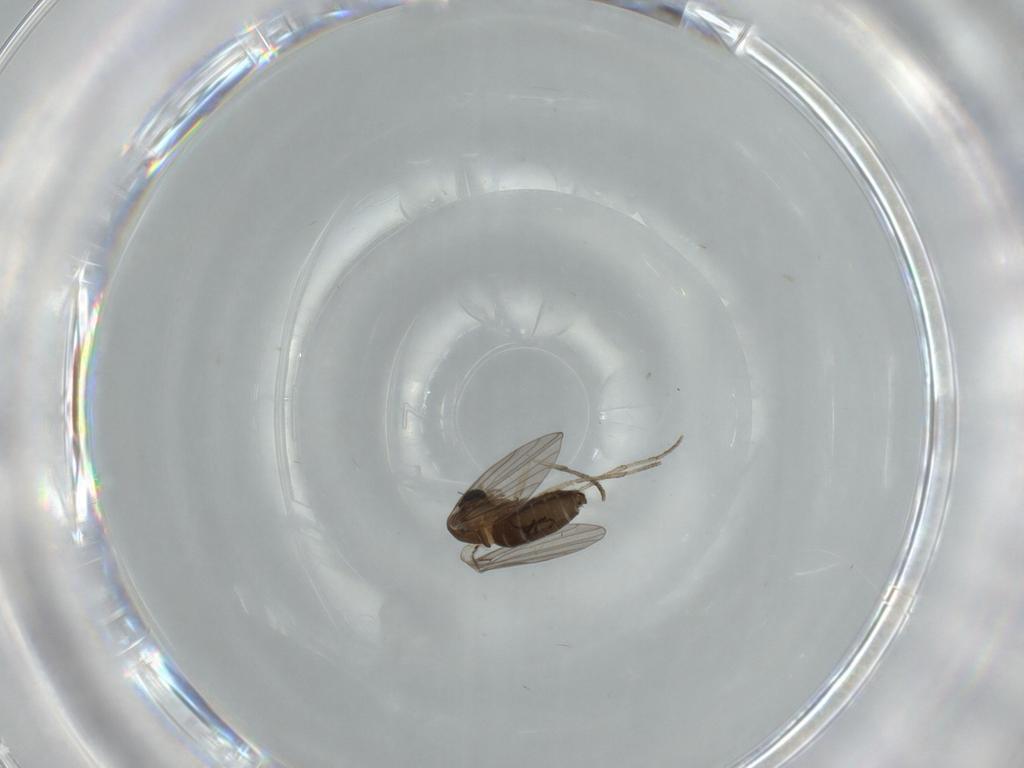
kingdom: Animalia
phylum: Arthropoda
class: Insecta
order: Diptera
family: Psychodidae
